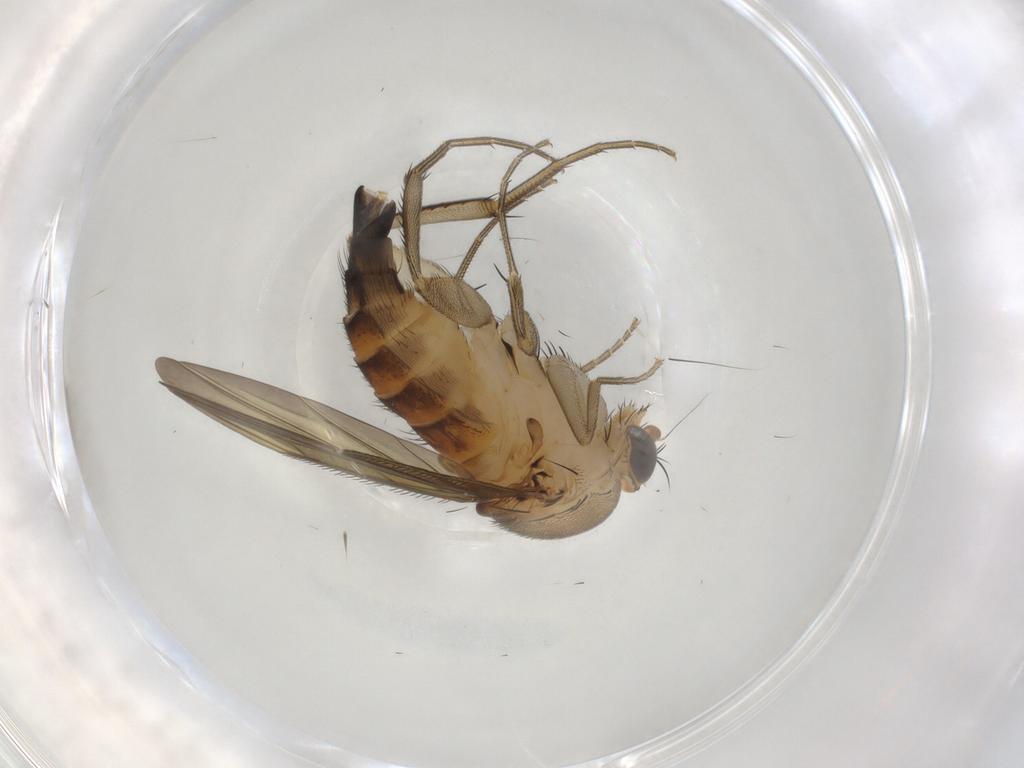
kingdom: Animalia
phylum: Arthropoda
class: Insecta
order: Diptera
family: Phoridae
